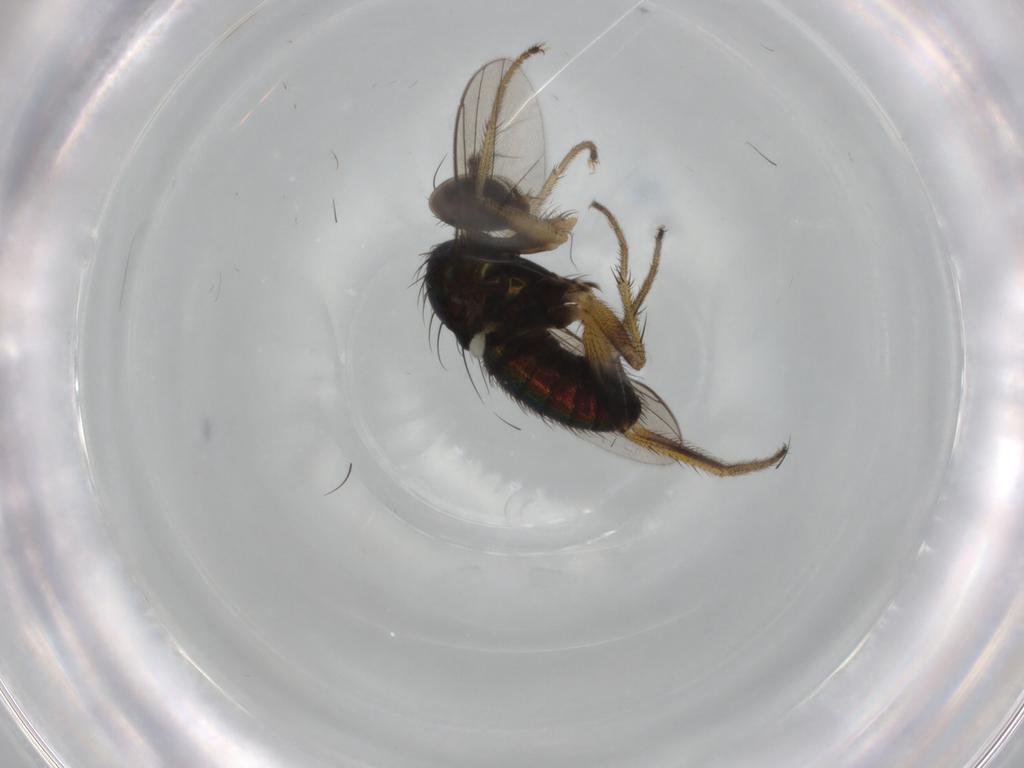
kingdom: Animalia
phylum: Arthropoda
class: Insecta
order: Diptera
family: Dolichopodidae
